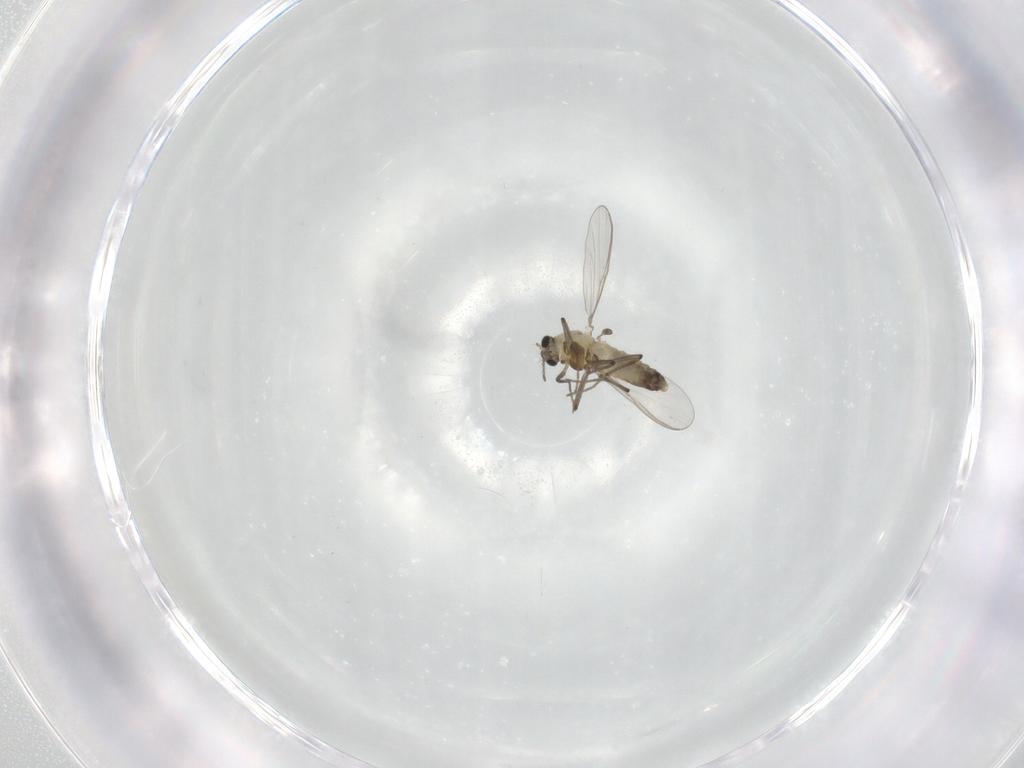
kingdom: Animalia
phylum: Arthropoda
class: Insecta
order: Diptera
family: Chironomidae
